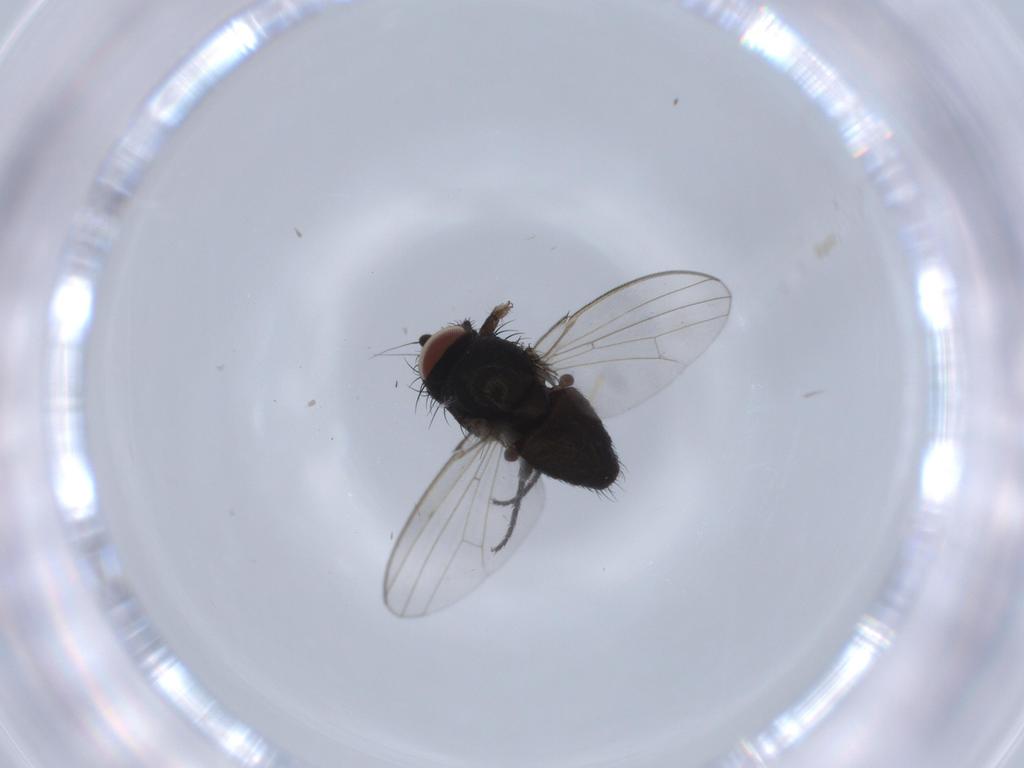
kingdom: Animalia
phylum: Arthropoda
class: Insecta
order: Diptera
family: Milichiidae
